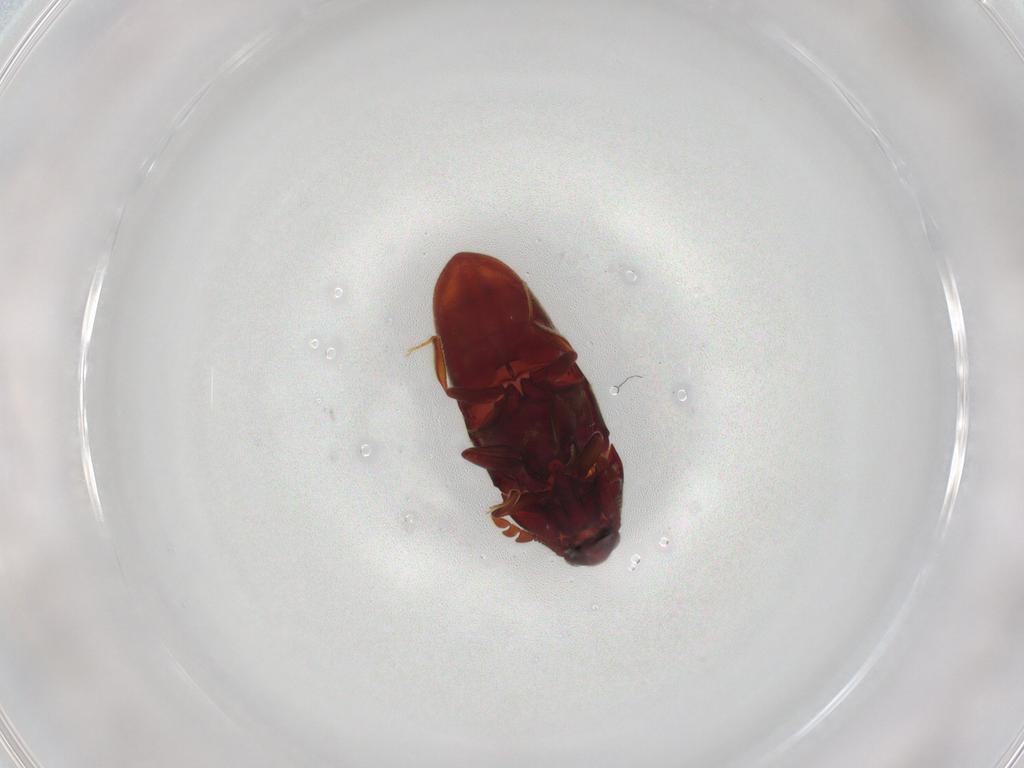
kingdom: Animalia
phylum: Arthropoda
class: Insecta
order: Coleoptera
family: Throscidae
